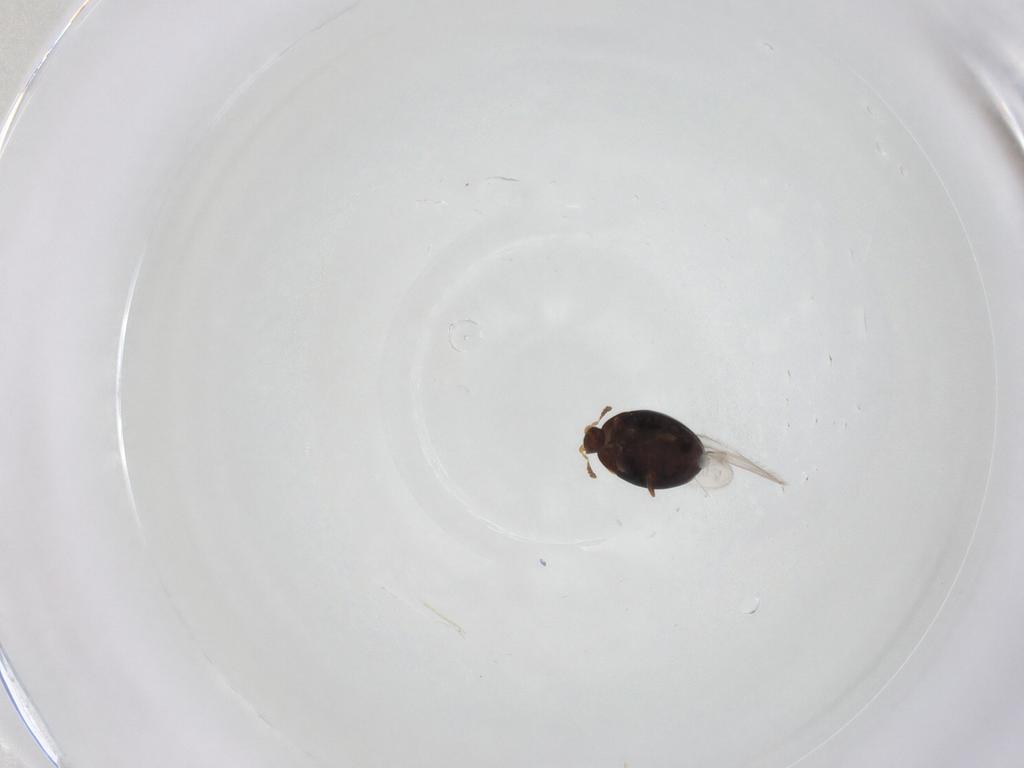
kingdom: Animalia
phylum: Arthropoda
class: Insecta
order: Coleoptera
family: Corylophidae
